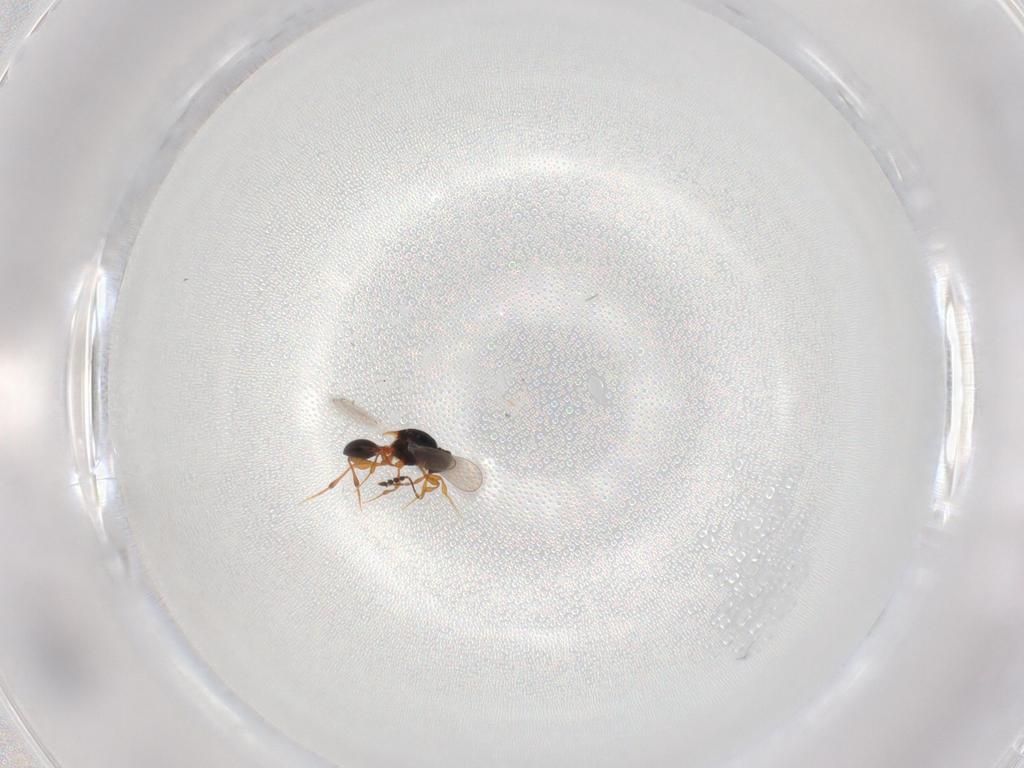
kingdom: Animalia
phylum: Arthropoda
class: Insecta
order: Hymenoptera
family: Platygastridae
